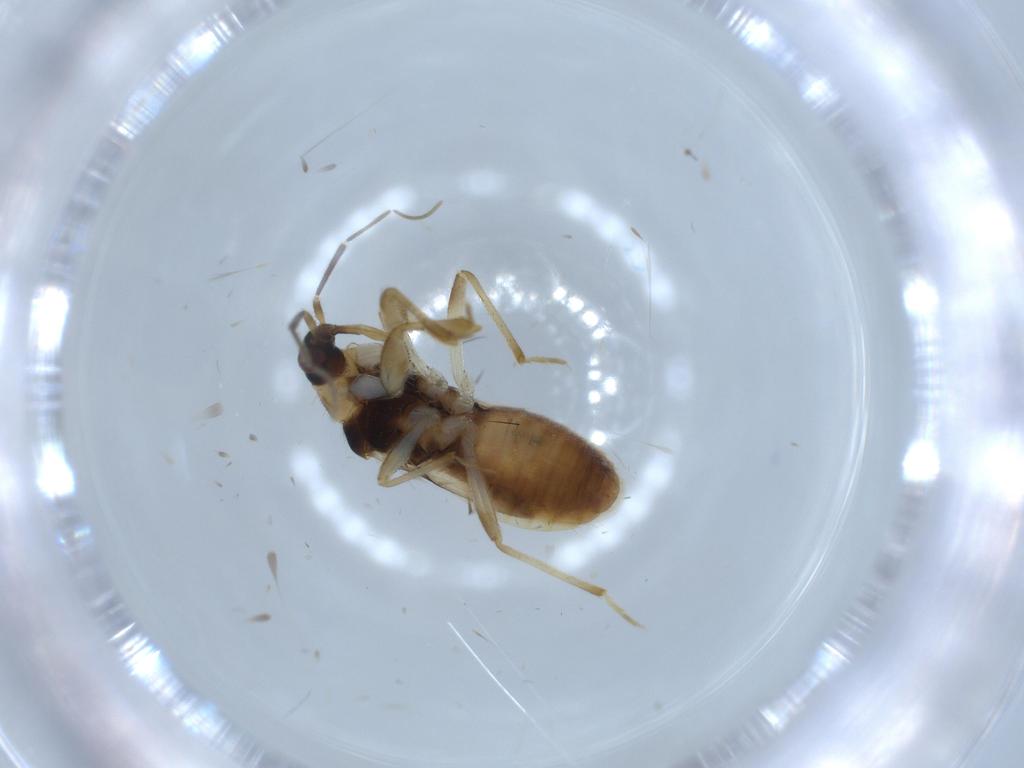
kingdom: Animalia
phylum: Arthropoda
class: Insecta
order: Hemiptera
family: Nabidae
